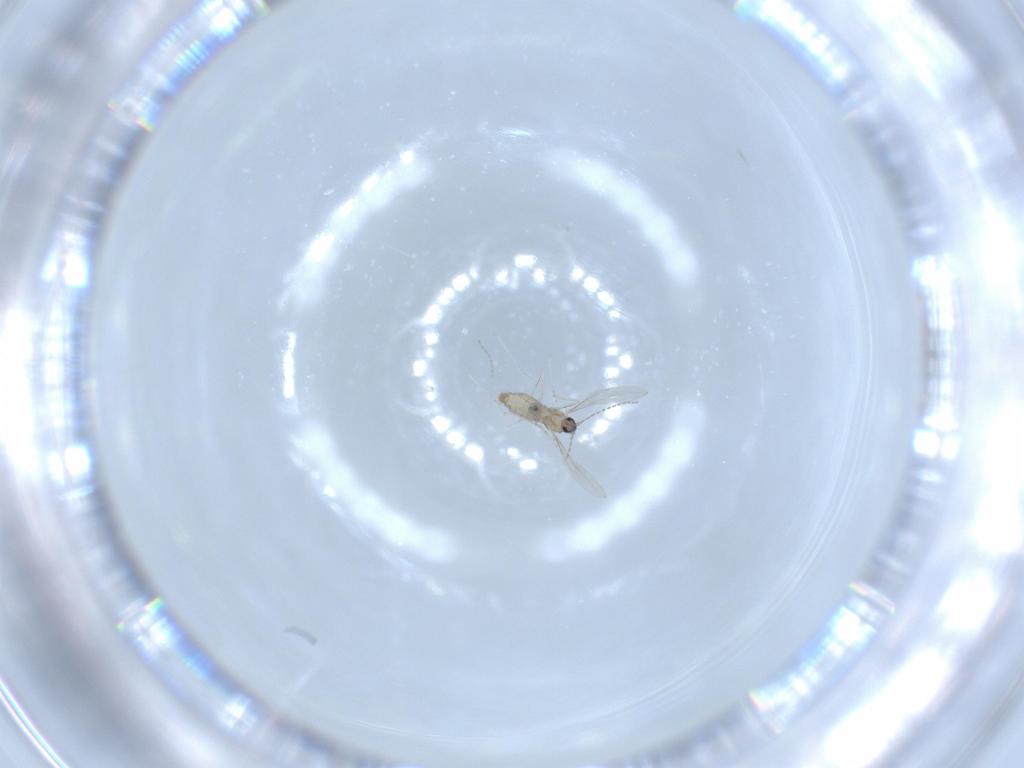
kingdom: Animalia
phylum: Arthropoda
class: Insecta
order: Diptera
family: Cecidomyiidae
